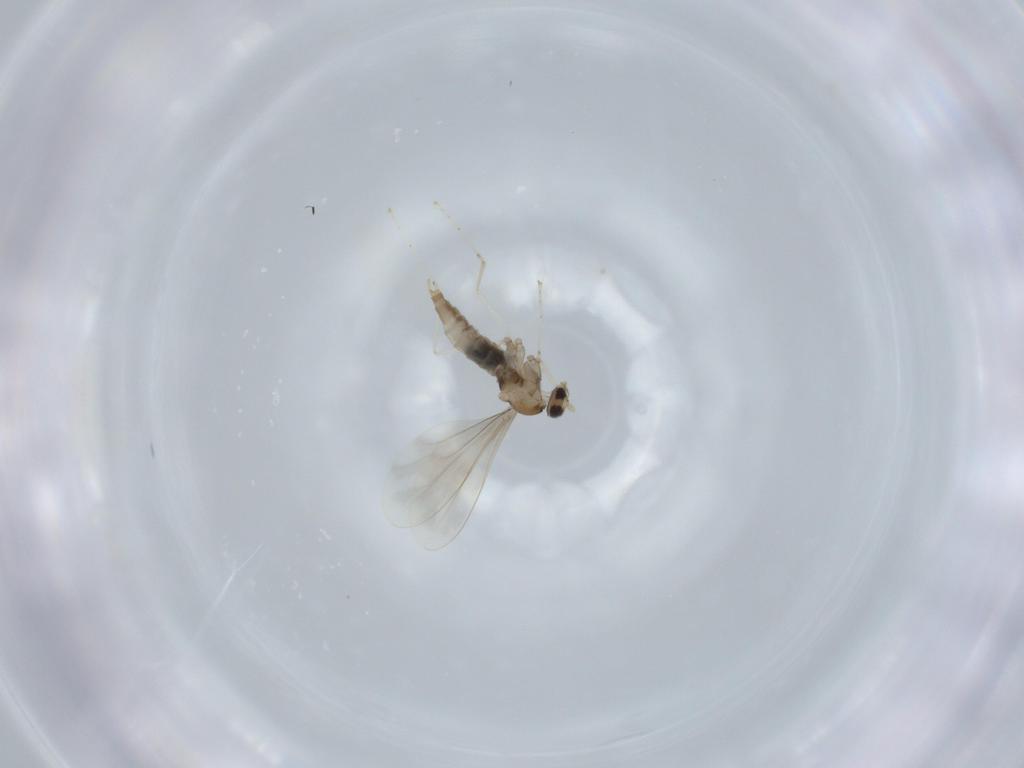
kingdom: Animalia
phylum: Arthropoda
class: Insecta
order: Diptera
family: Cecidomyiidae
